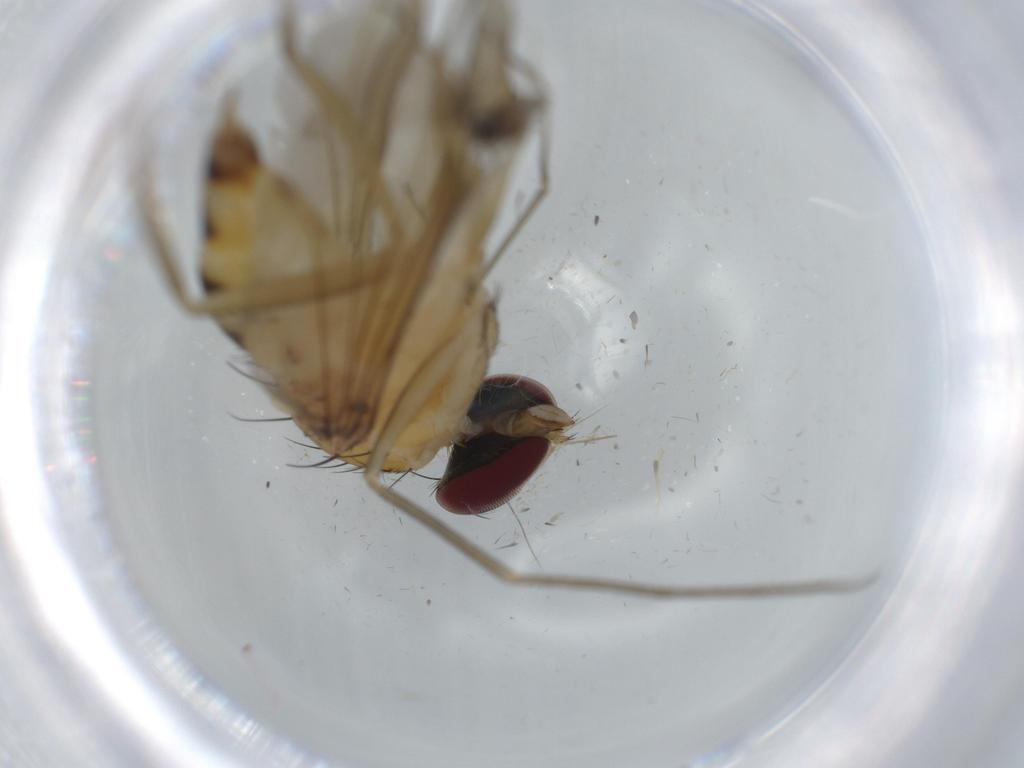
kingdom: Animalia
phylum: Arthropoda
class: Insecta
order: Diptera
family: Dolichopodidae
